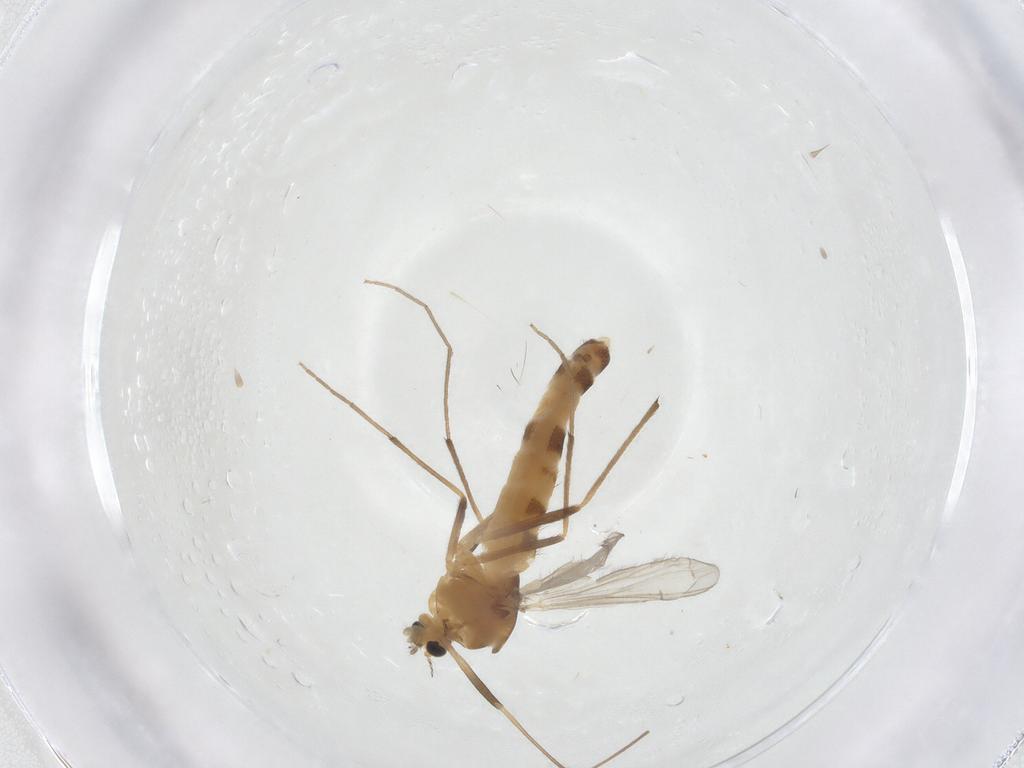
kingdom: Animalia
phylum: Arthropoda
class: Insecta
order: Diptera
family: Chironomidae
